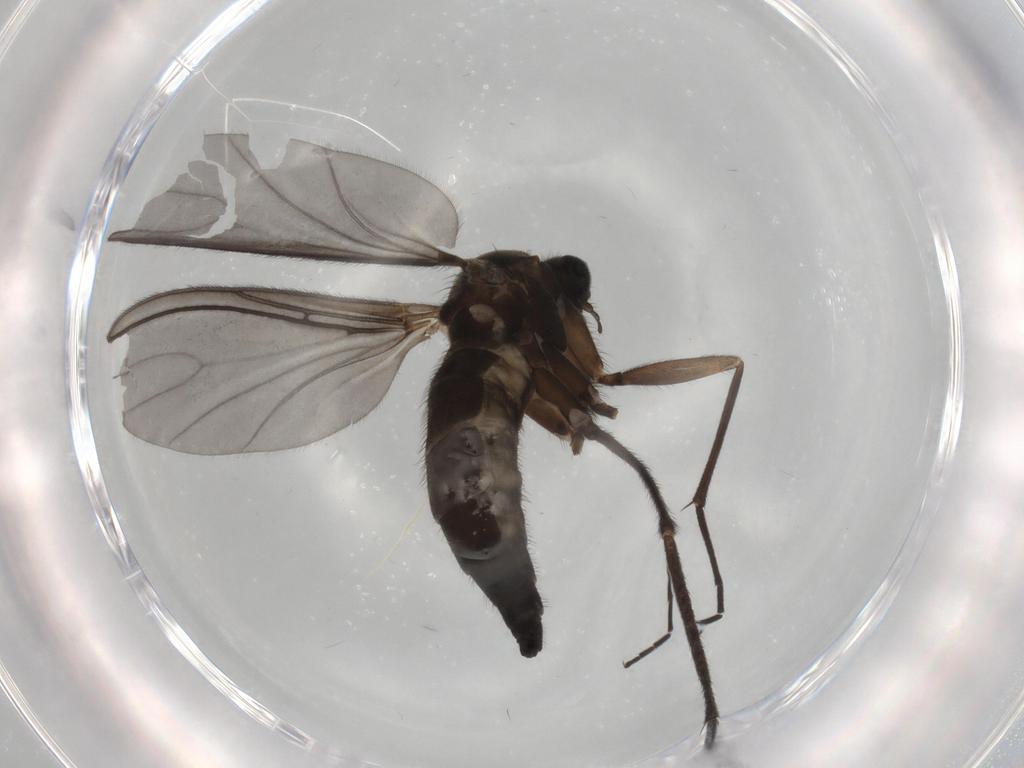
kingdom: Animalia
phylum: Arthropoda
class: Insecta
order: Diptera
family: Sciaridae
